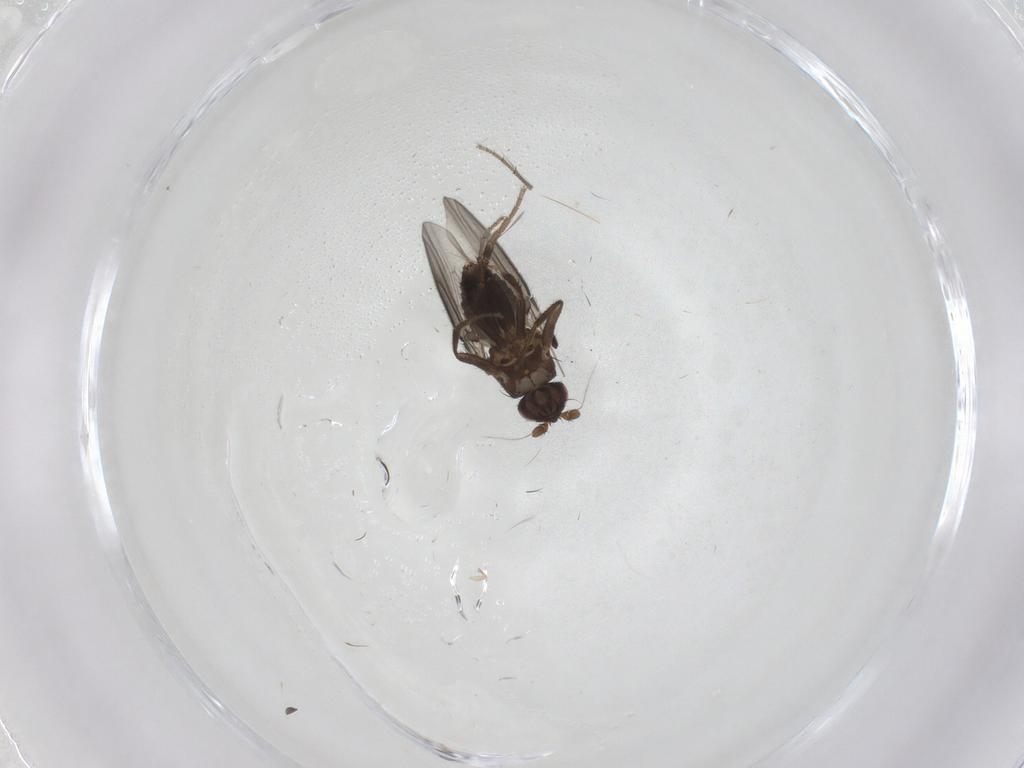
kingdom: Animalia
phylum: Arthropoda
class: Insecta
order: Diptera
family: Sphaeroceridae
